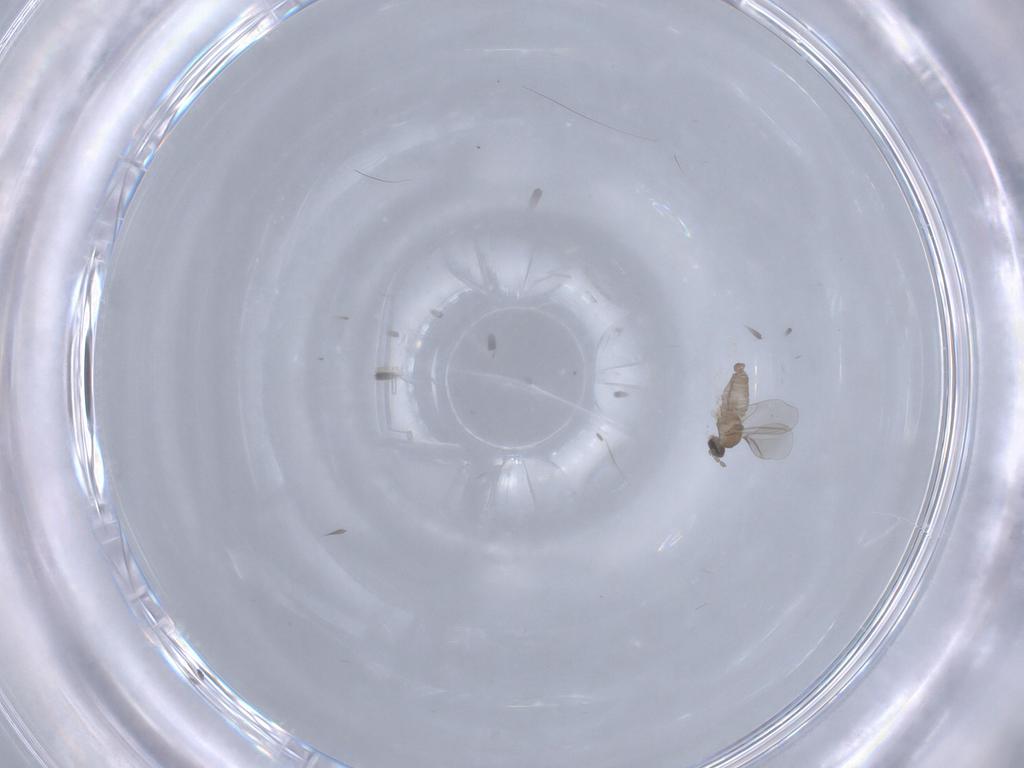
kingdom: Animalia
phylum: Arthropoda
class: Insecta
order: Diptera
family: Cecidomyiidae
